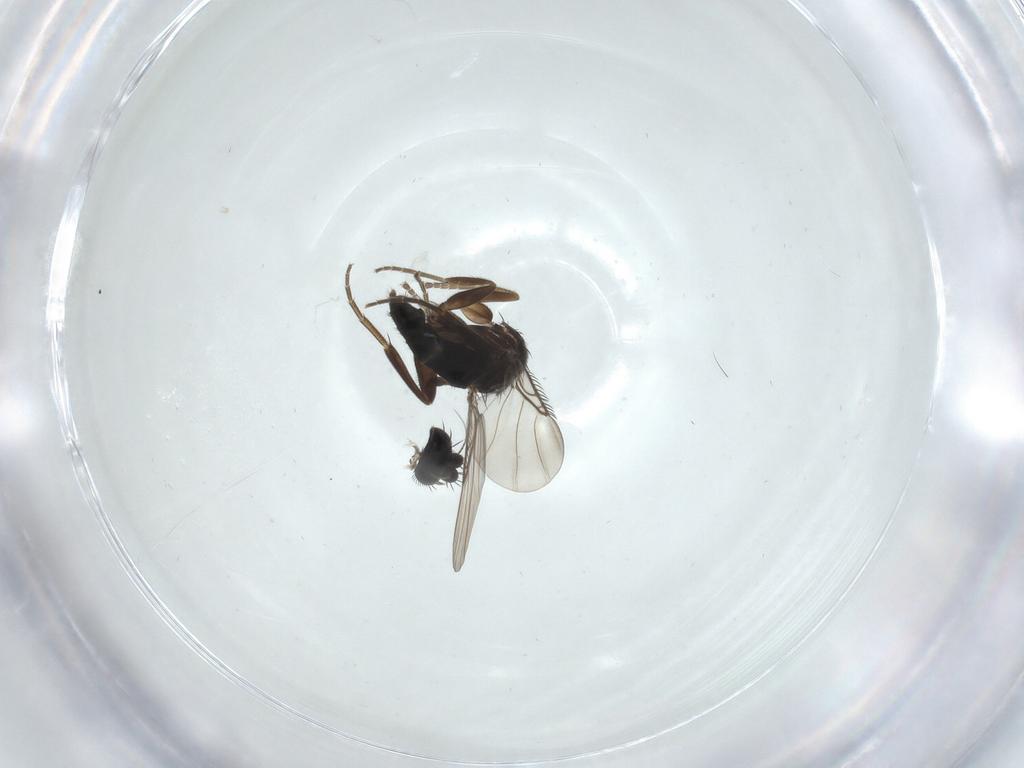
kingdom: Animalia
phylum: Arthropoda
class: Insecta
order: Diptera
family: Phoridae
